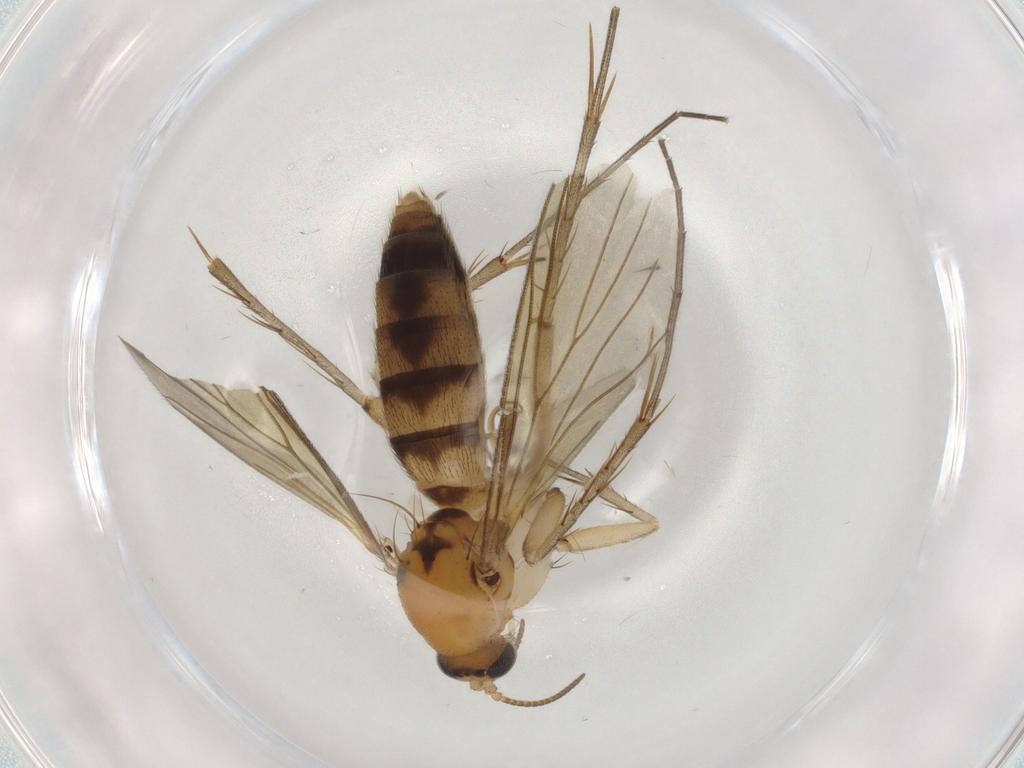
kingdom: Animalia
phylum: Arthropoda
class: Insecta
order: Diptera
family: Mycetophilidae
